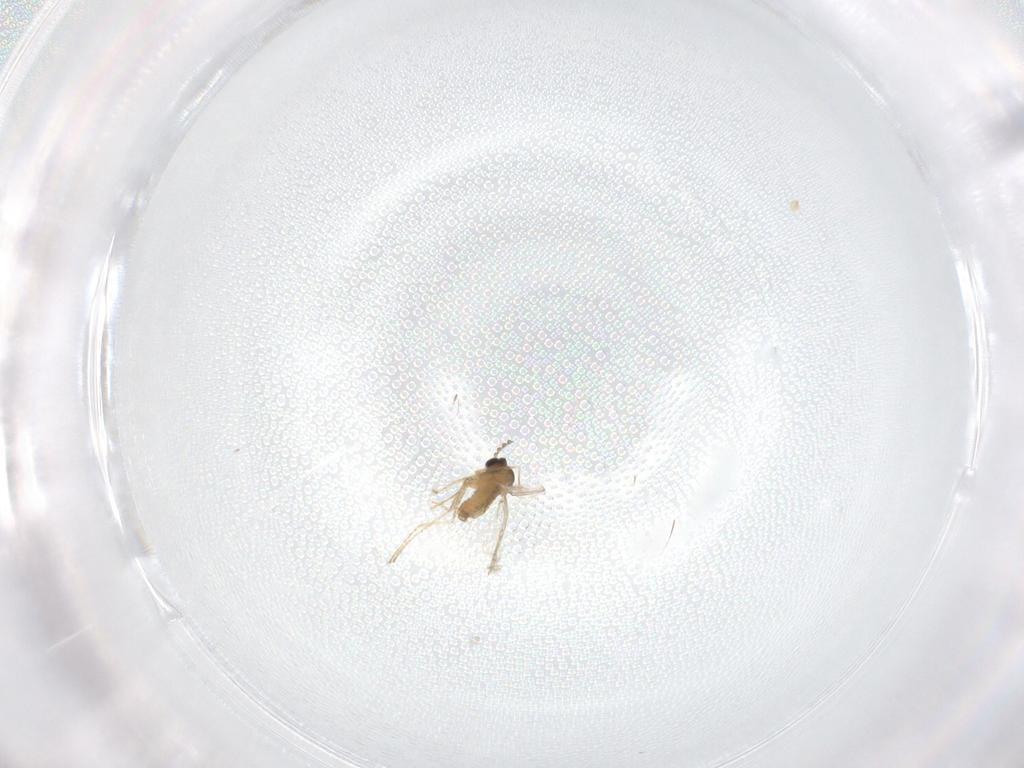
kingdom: Animalia
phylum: Arthropoda
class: Insecta
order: Diptera
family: Cecidomyiidae
